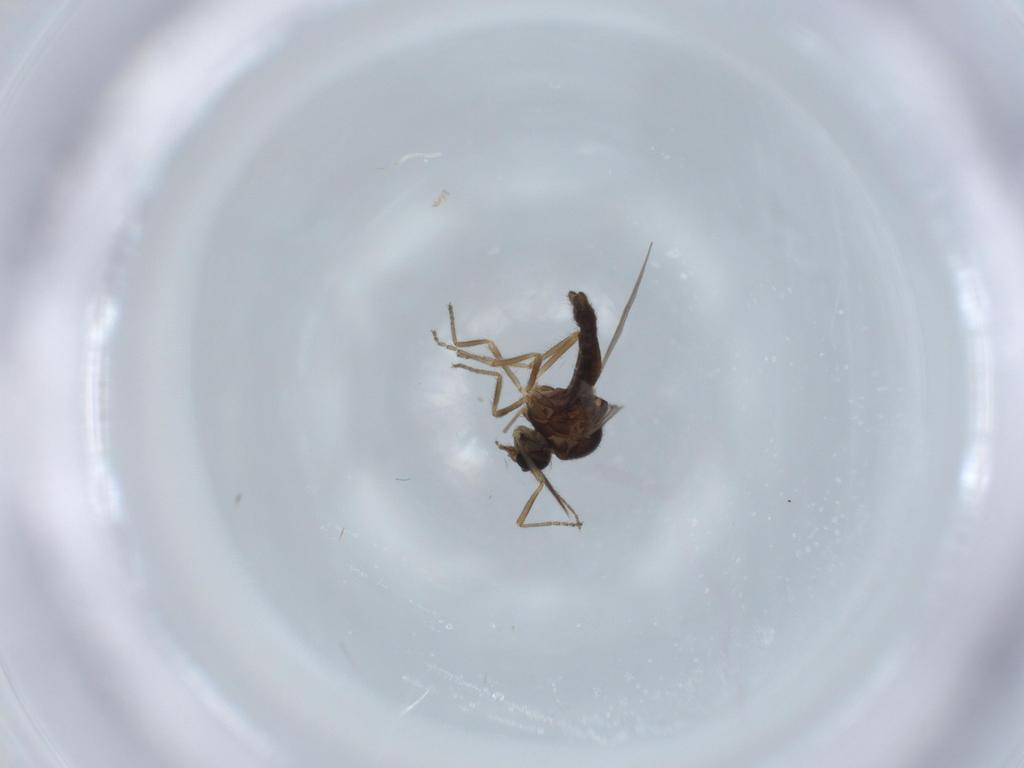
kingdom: Animalia
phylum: Arthropoda
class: Insecta
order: Diptera
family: Ceratopogonidae
